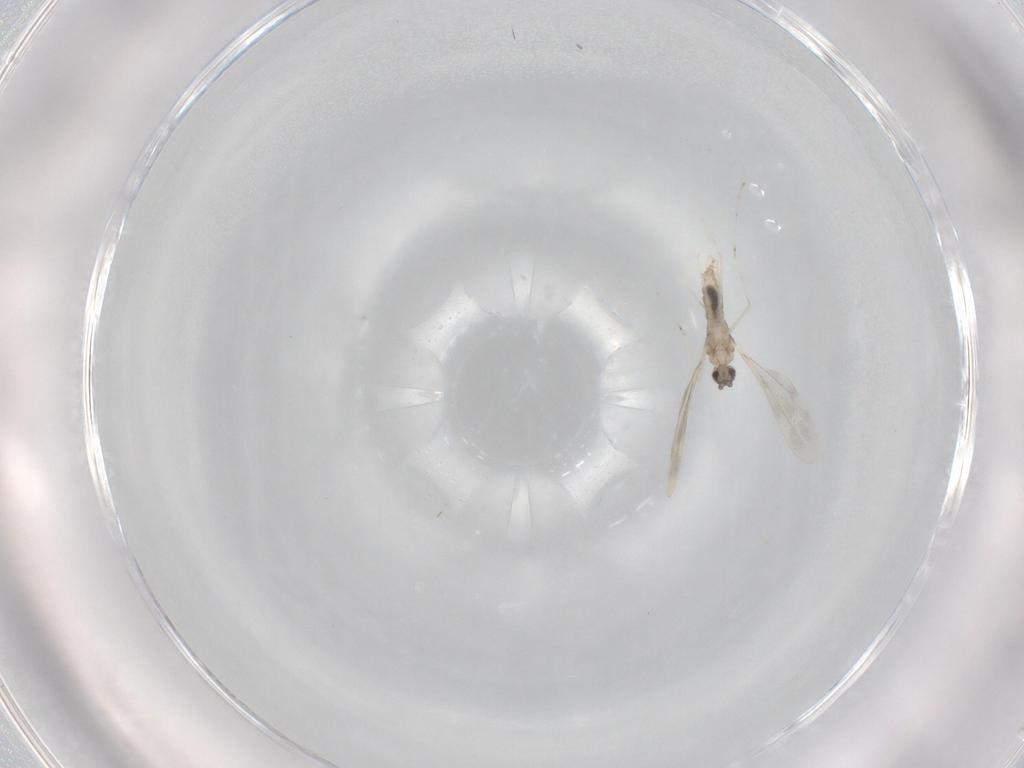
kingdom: Animalia
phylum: Arthropoda
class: Insecta
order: Diptera
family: Cecidomyiidae
